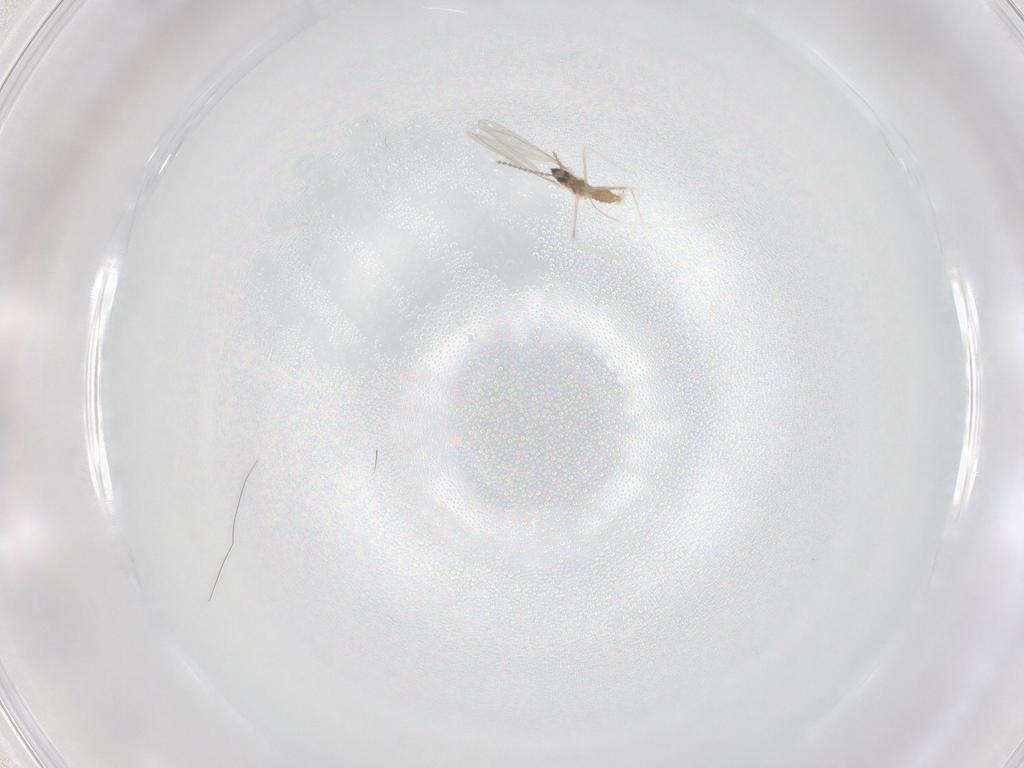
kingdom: Animalia
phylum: Arthropoda
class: Insecta
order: Diptera
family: Cecidomyiidae
